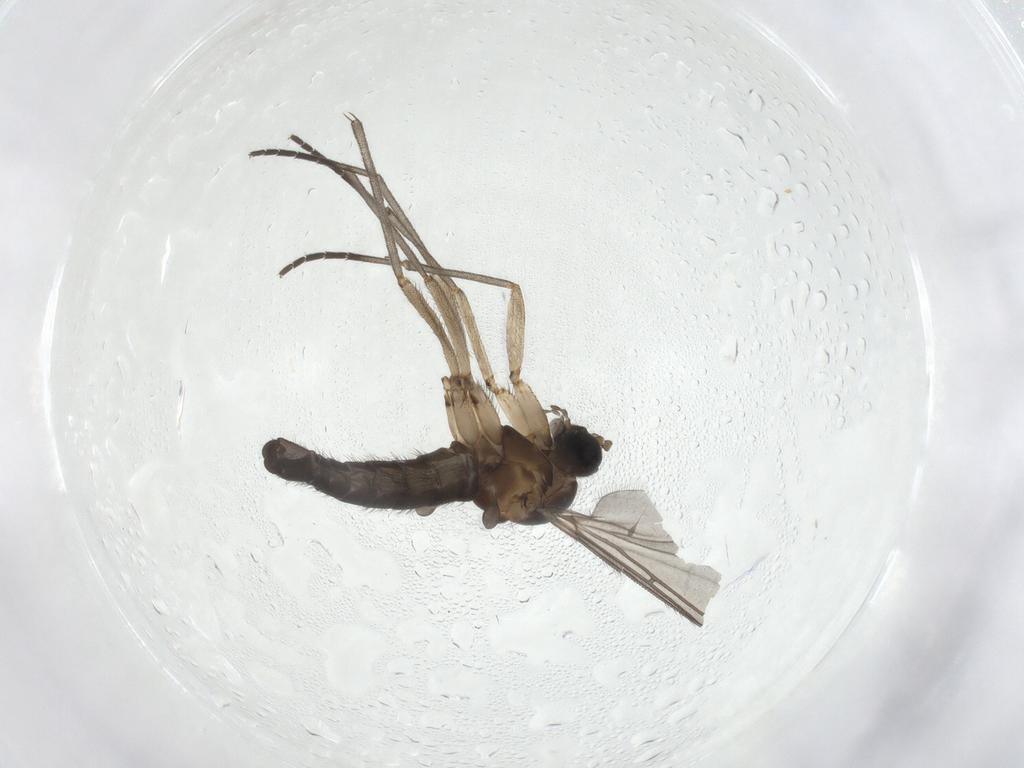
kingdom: Animalia
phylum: Arthropoda
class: Insecta
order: Diptera
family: Sciaridae
